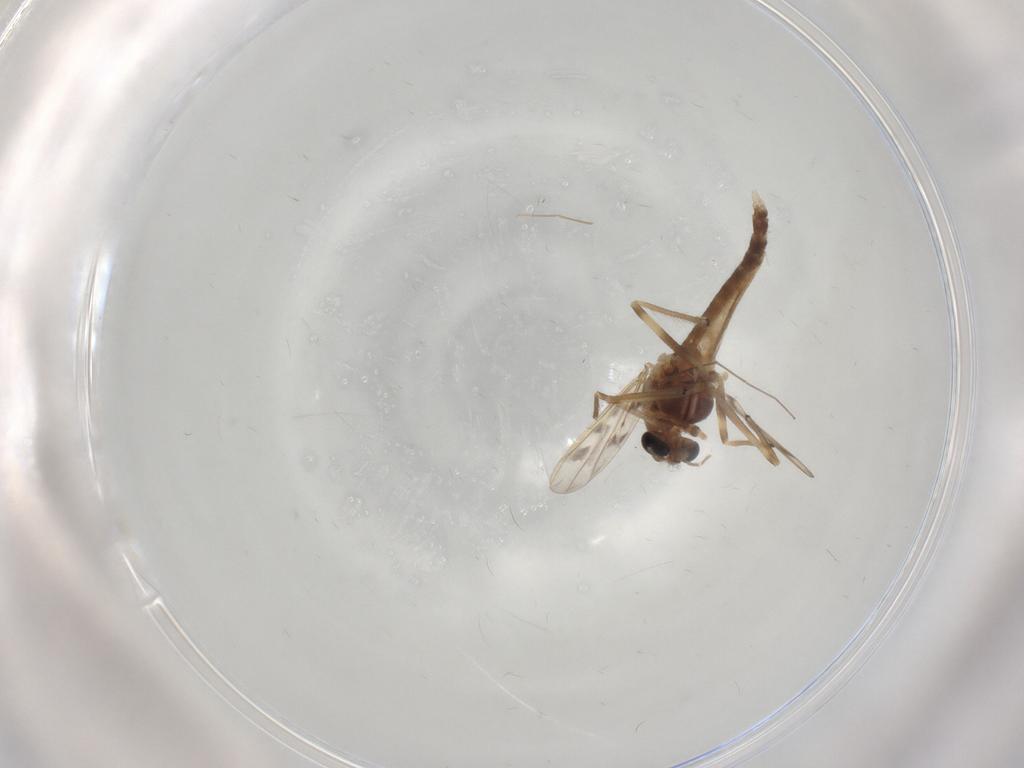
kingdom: Animalia
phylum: Arthropoda
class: Insecta
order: Diptera
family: Chironomidae
